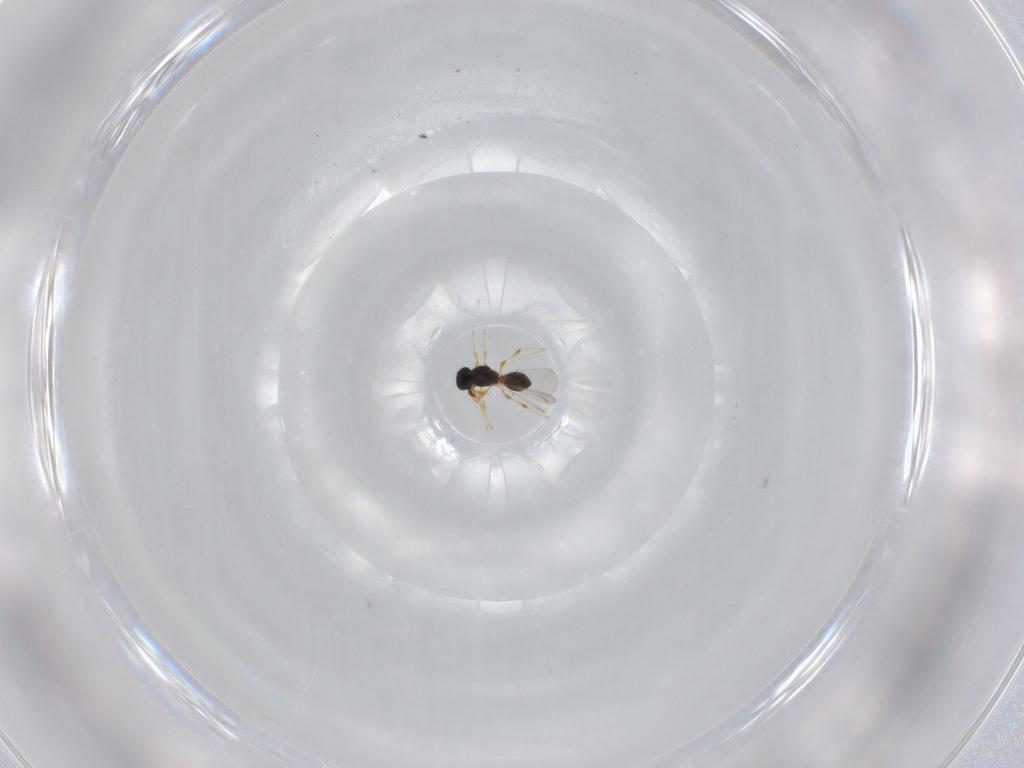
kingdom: Animalia
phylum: Arthropoda
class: Insecta
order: Hymenoptera
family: Platygastridae
